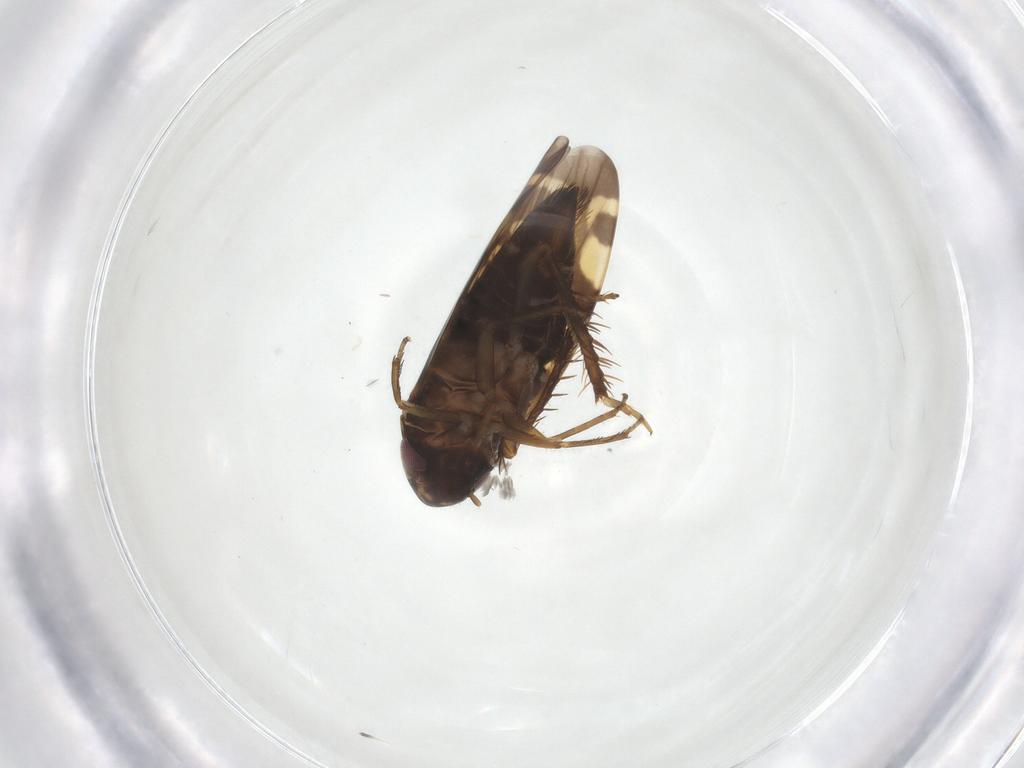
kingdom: Animalia
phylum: Arthropoda
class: Insecta
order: Hemiptera
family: Cicadellidae
